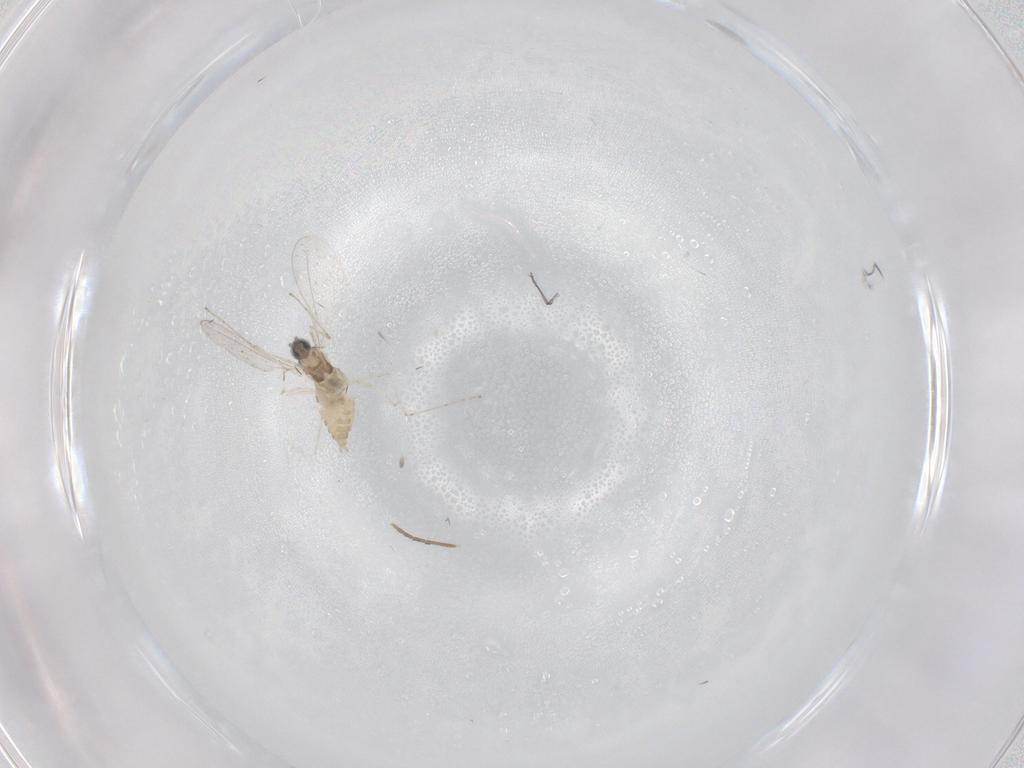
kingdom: Animalia
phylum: Arthropoda
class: Insecta
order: Diptera
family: Cecidomyiidae
